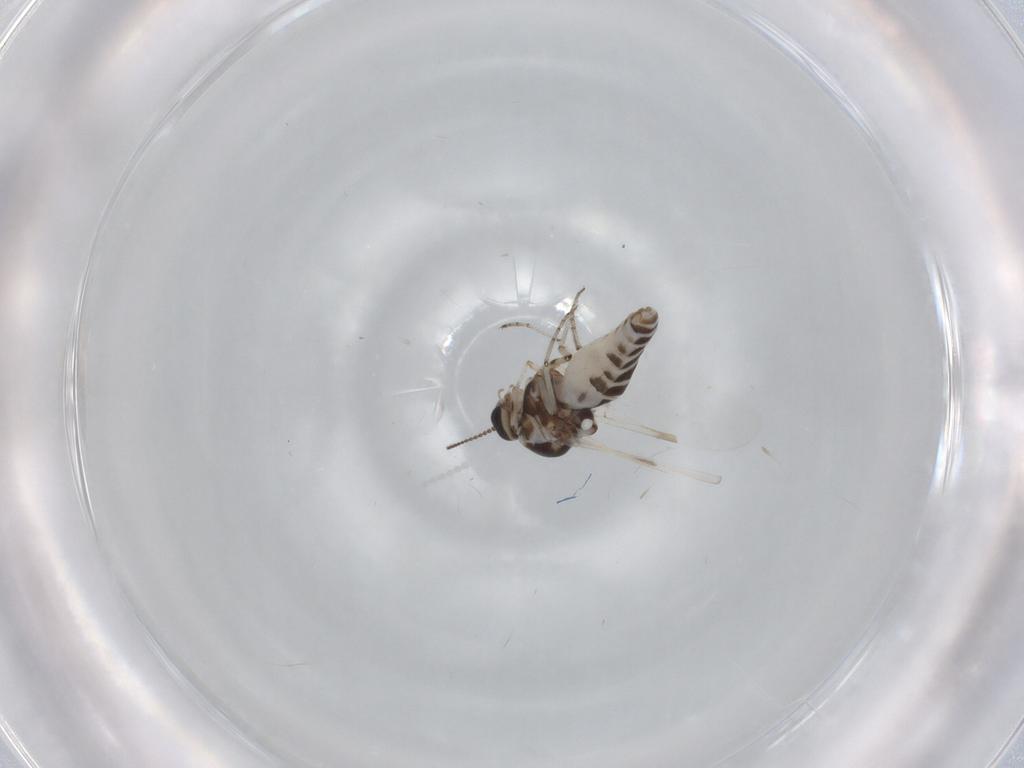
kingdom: Animalia
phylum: Arthropoda
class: Insecta
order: Diptera
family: Ceratopogonidae
